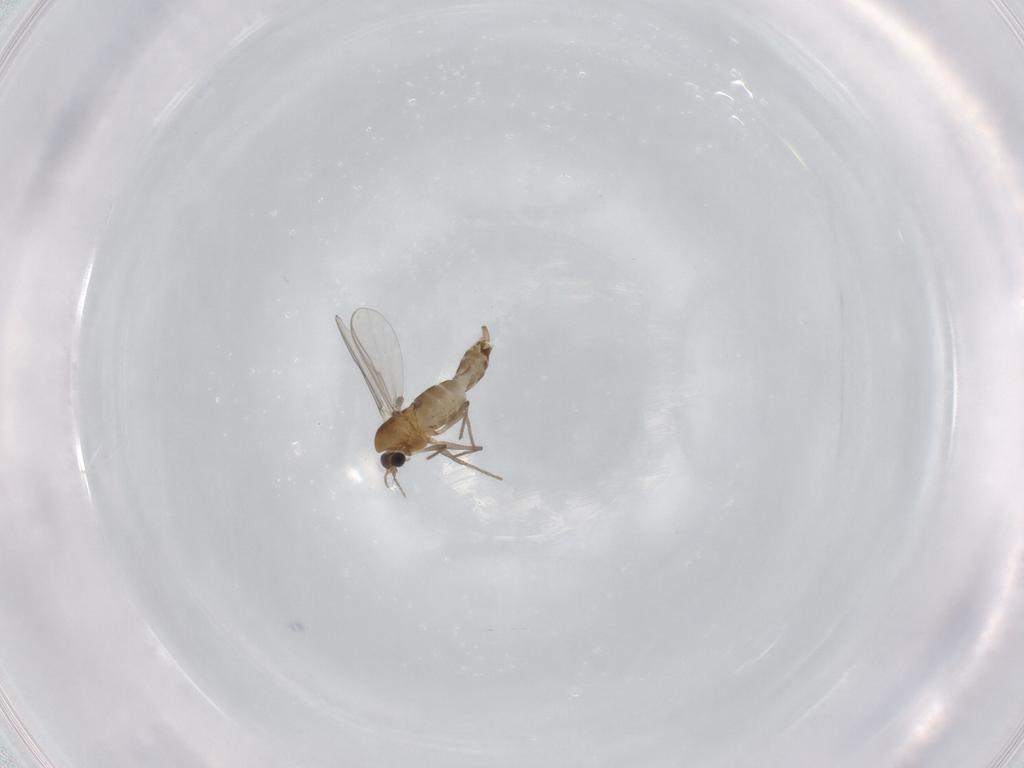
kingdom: Animalia
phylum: Arthropoda
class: Insecta
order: Diptera
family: Chironomidae
